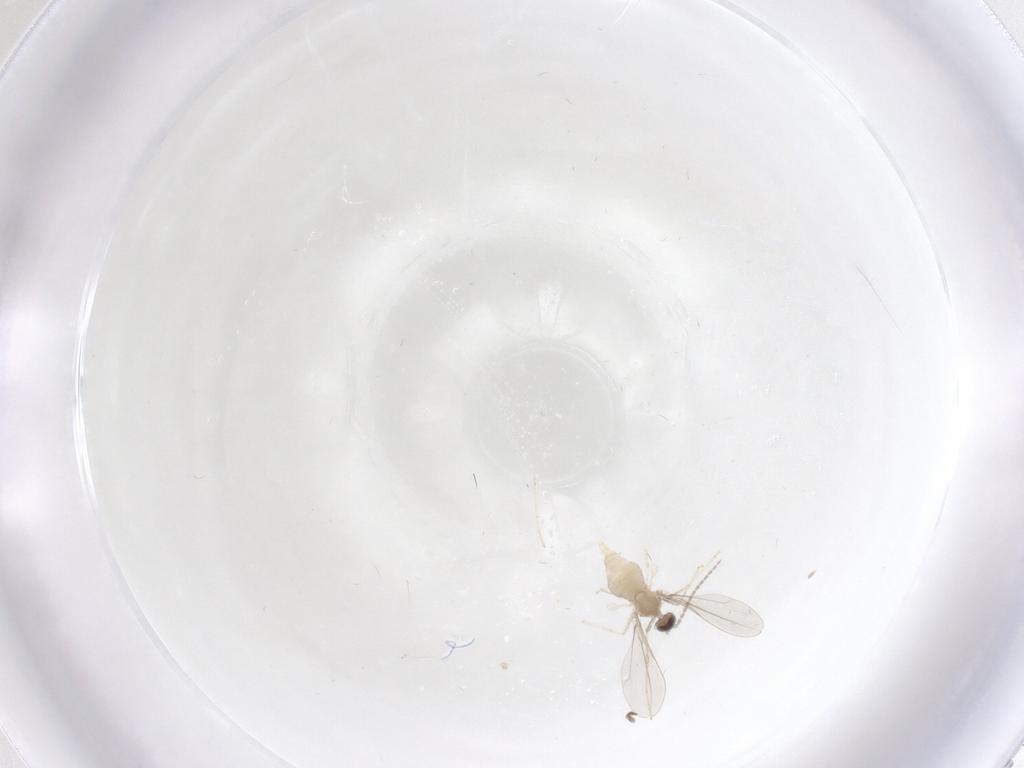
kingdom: Animalia
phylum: Arthropoda
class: Insecta
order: Diptera
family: Cecidomyiidae
